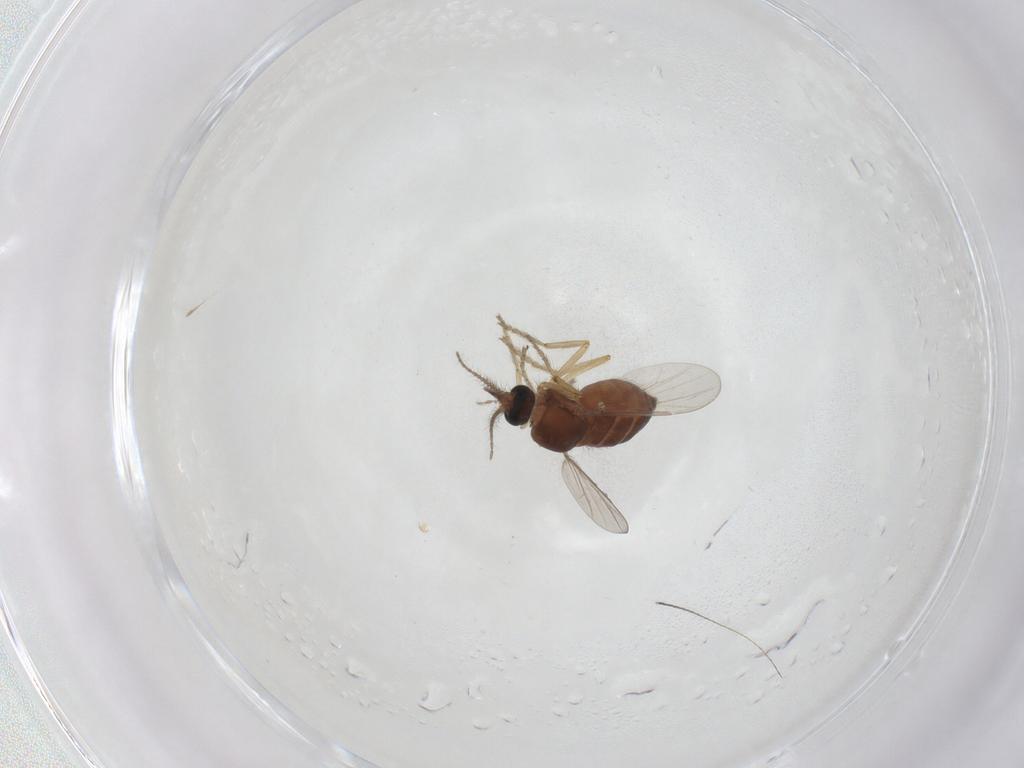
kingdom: Animalia
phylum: Arthropoda
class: Insecta
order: Diptera
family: Ceratopogonidae
